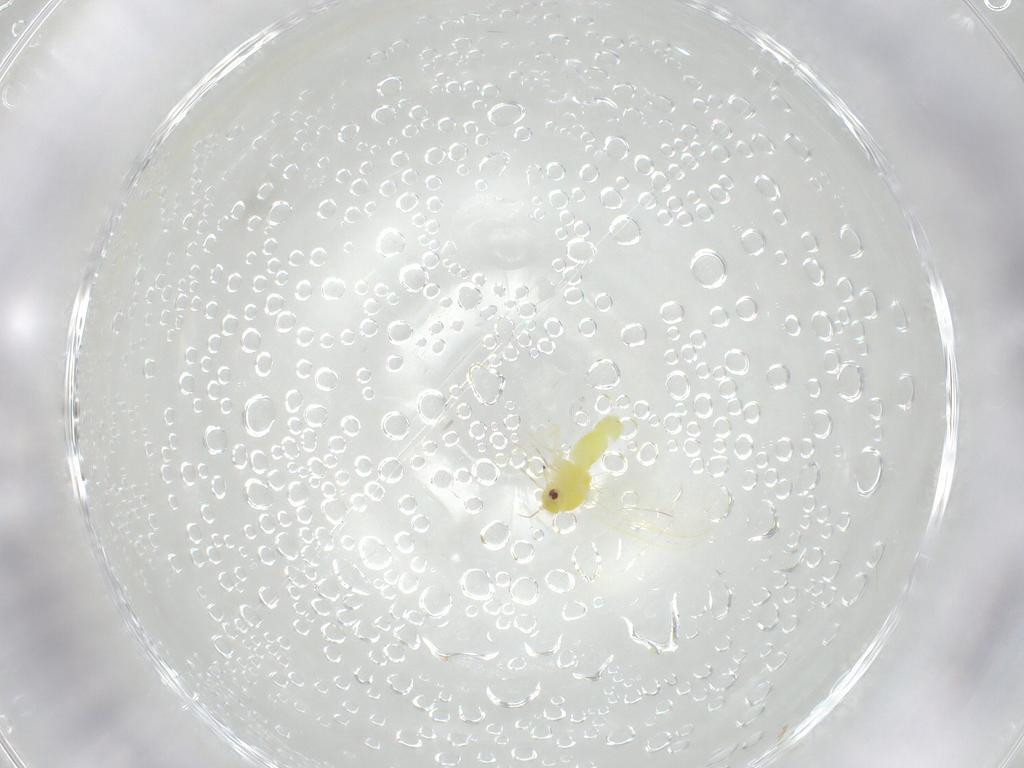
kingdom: Animalia
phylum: Arthropoda
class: Insecta
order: Hemiptera
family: Aleyrodidae
